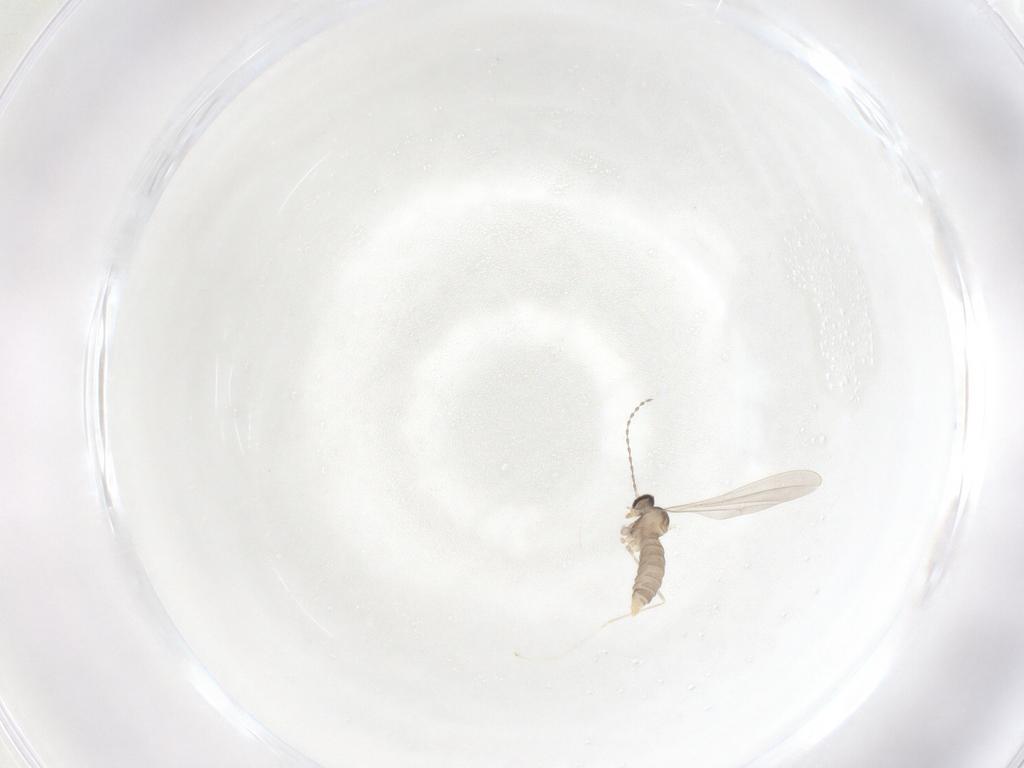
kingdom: Animalia
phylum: Arthropoda
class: Insecta
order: Diptera
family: Cecidomyiidae
